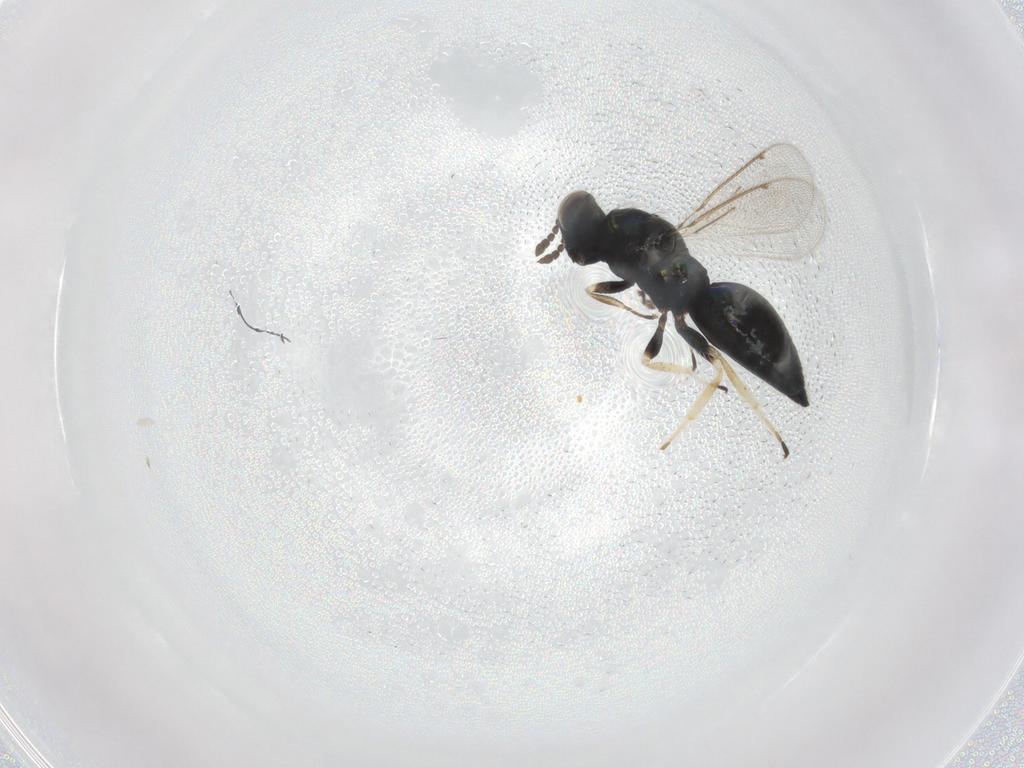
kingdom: Animalia
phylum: Arthropoda
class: Insecta
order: Hymenoptera
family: Eulophidae
